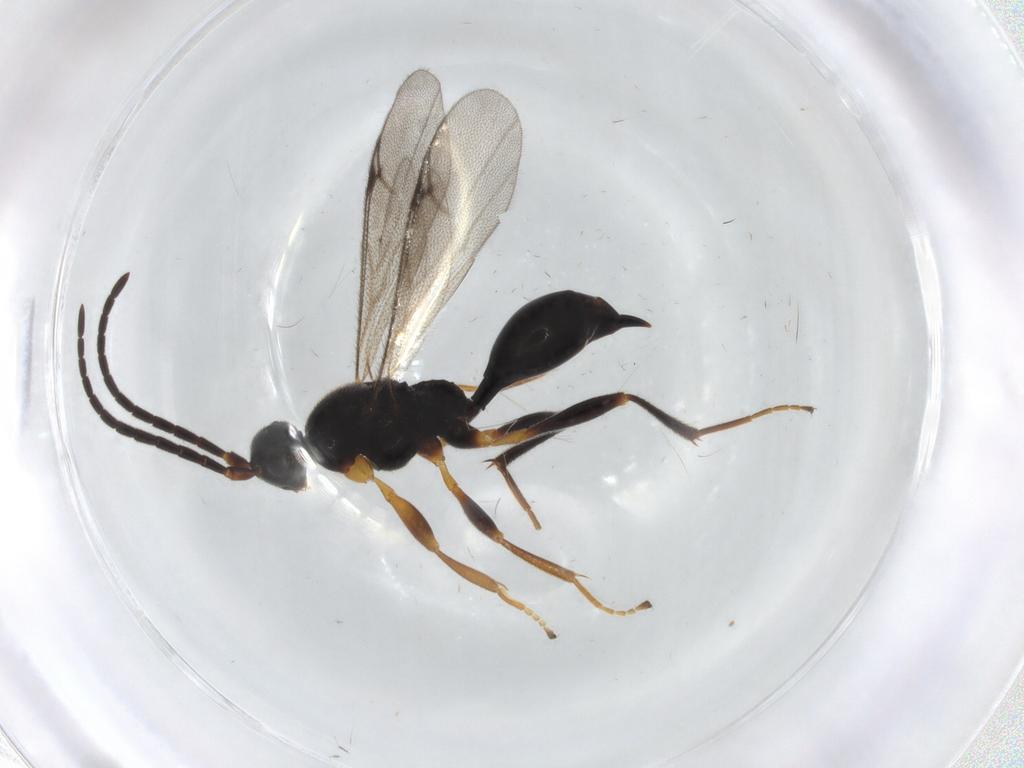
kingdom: Animalia
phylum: Arthropoda
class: Insecta
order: Hymenoptera
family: Proctotrupidae
